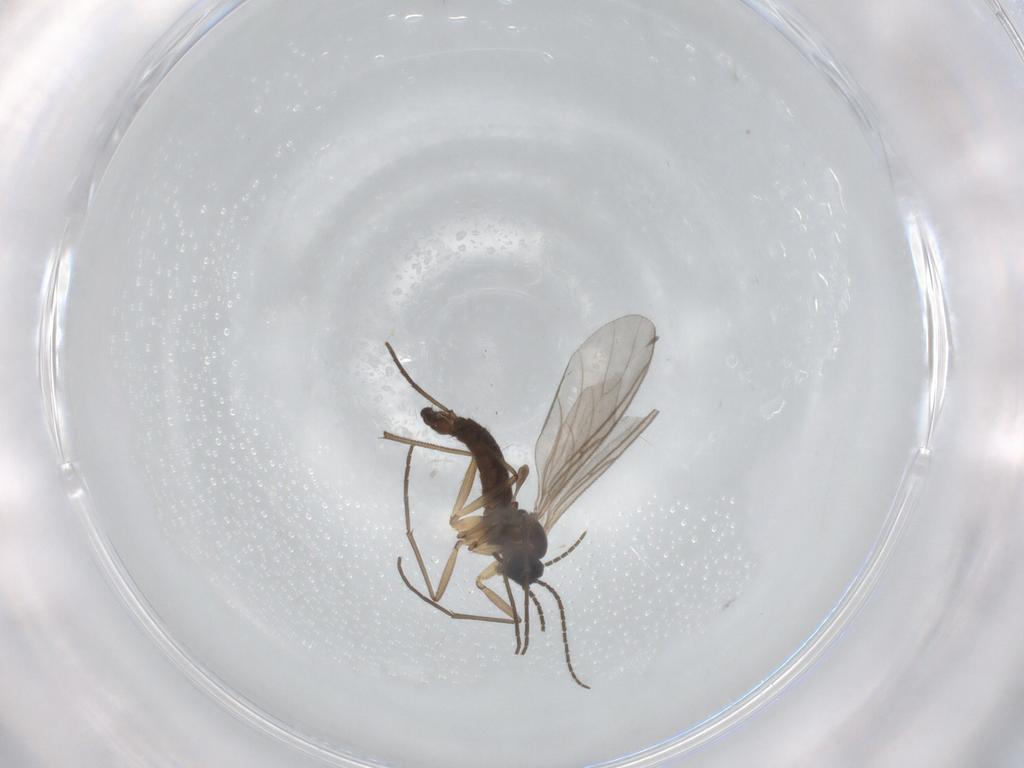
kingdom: Animalia
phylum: Arthropoda
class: Insecta
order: Diptera
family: Sciaridae
